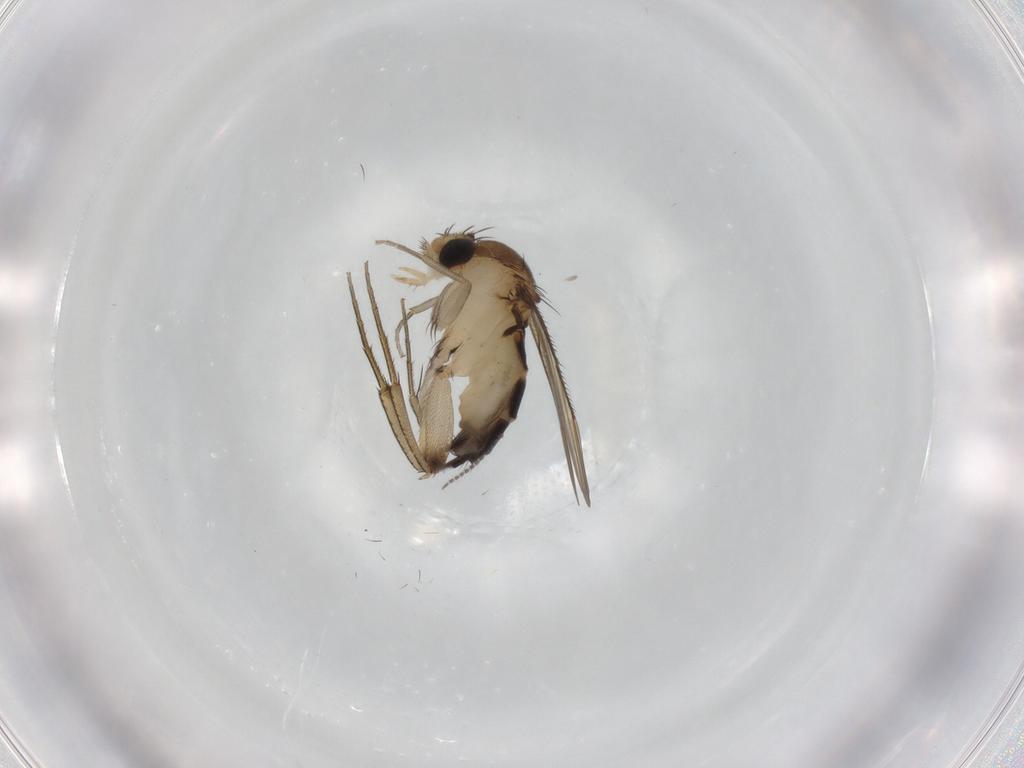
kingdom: Animalia
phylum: Arthropoda
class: Insecta
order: Diptera
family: Phoridae
